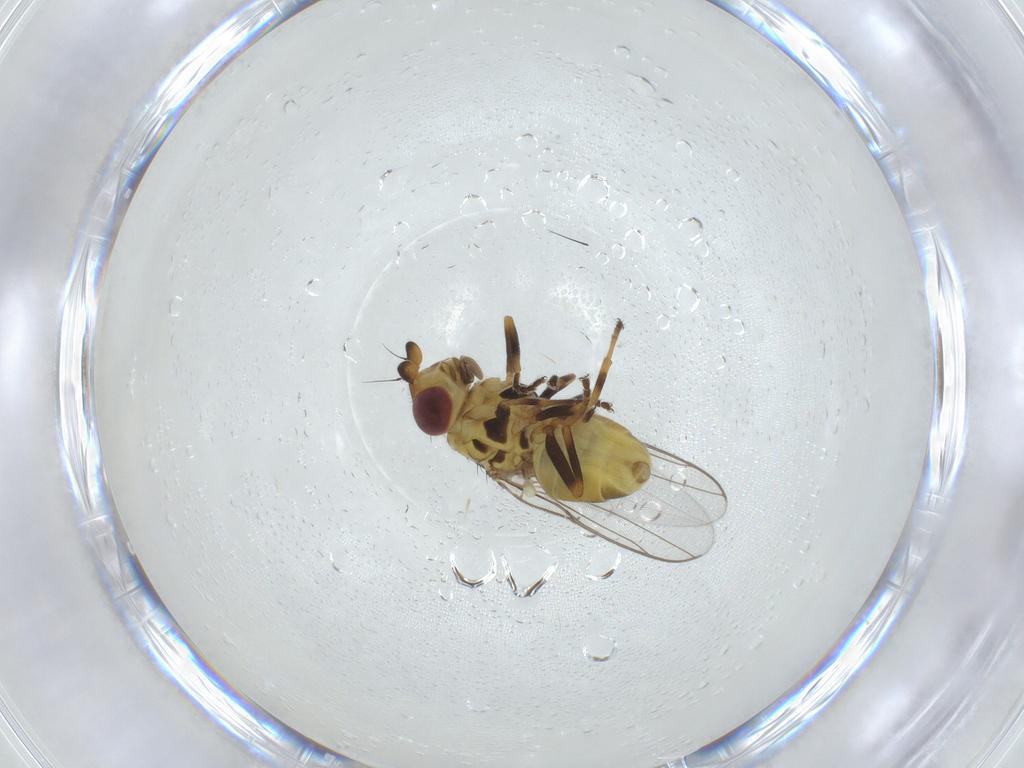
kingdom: Animalia
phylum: Arthropoda
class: Insecta
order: Diptera
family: Chloropidae
